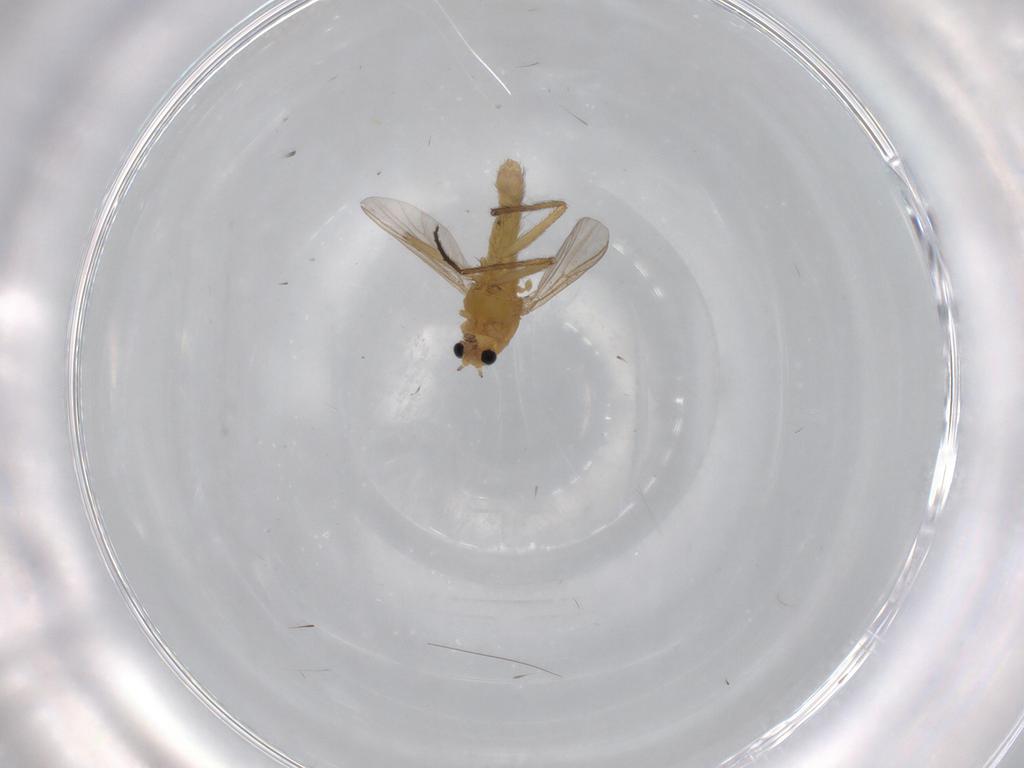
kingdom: Animalia
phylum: Arthropoda
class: Insecta
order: Diptera
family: Chironomidae
